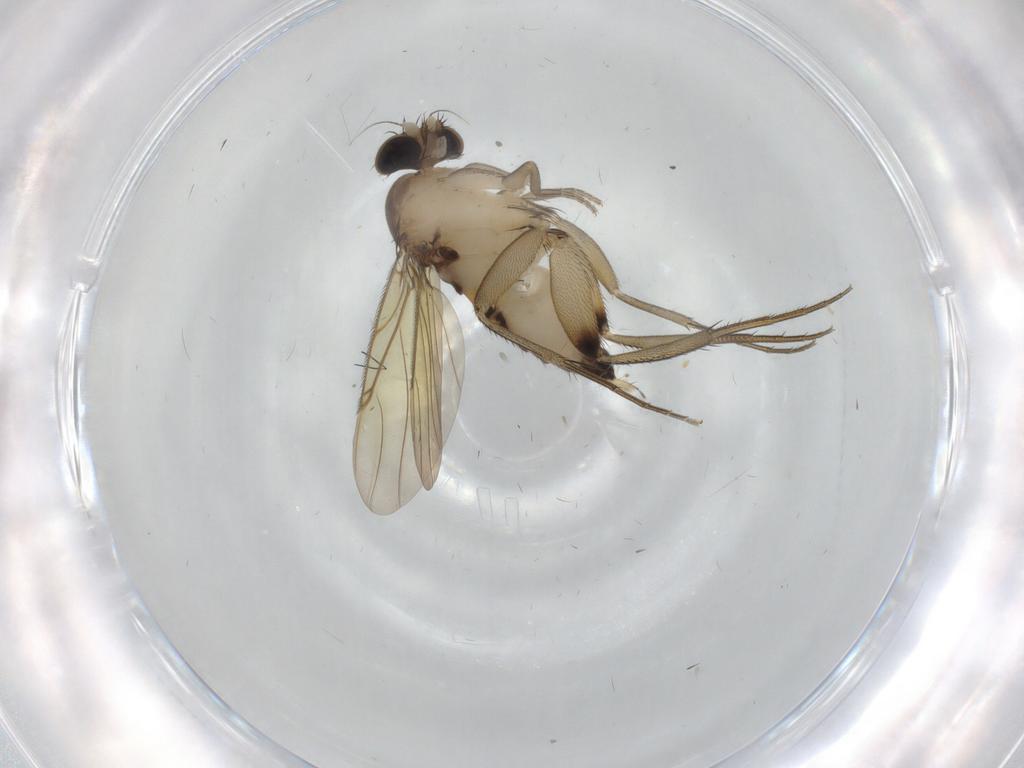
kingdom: Animalia
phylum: Arthropoda
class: Insecta
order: Diptera
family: Phoridae
